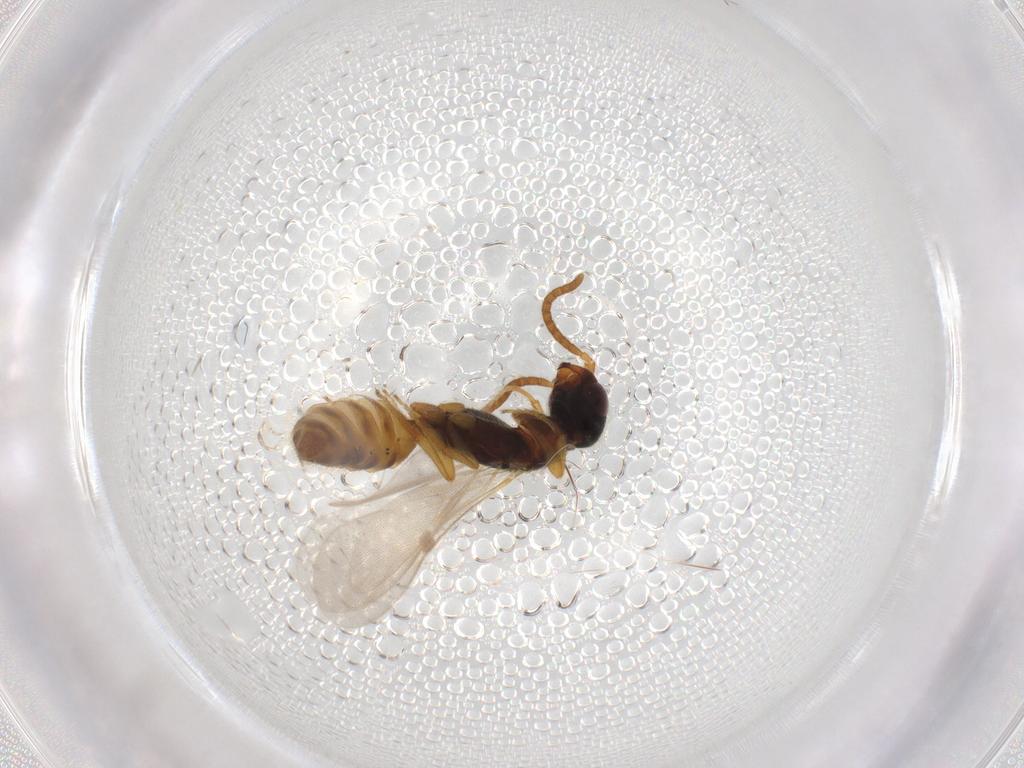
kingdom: Animalia
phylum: Arthropoda
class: Insecta
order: Hymenoptera
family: Bethylidae
